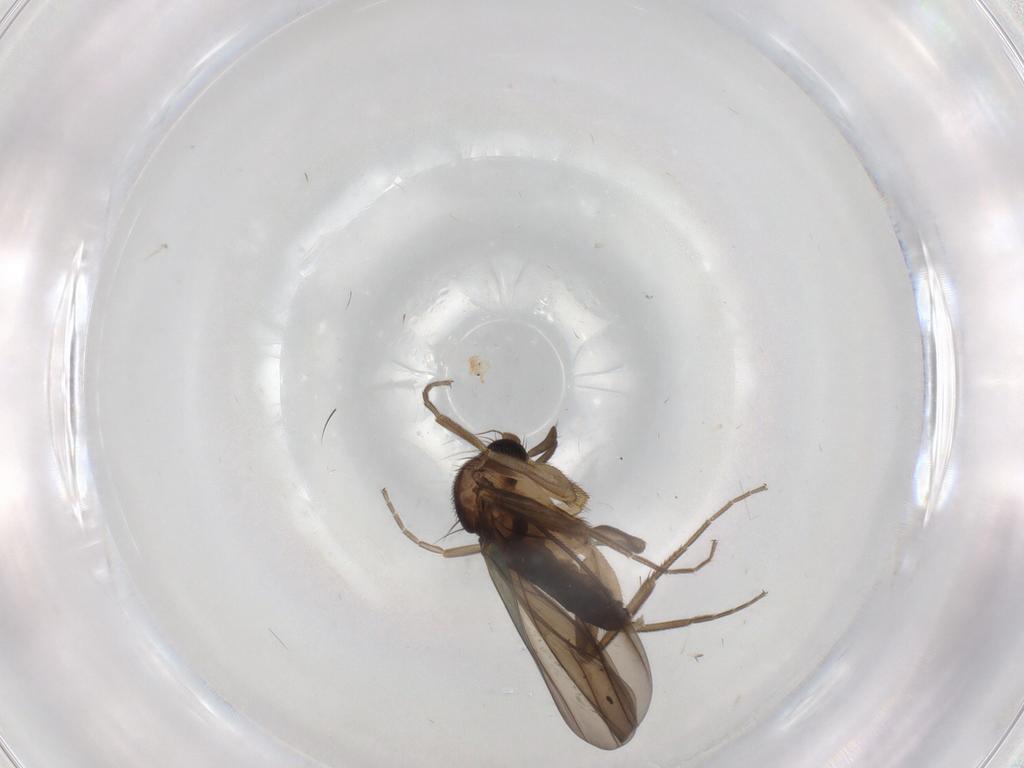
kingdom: Animalia
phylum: Arthropoda
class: Insecta
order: Diptera
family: Phoridae
